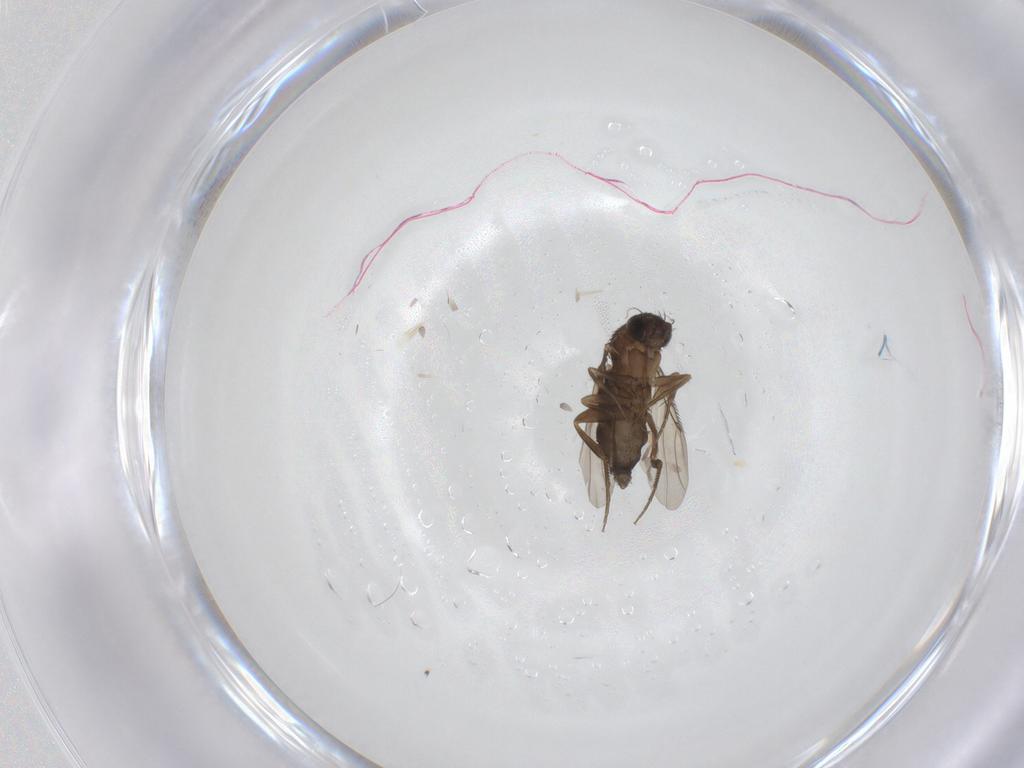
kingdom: Animalia
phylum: Arthropoda
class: Insecta
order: Diptera
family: Phoridae
